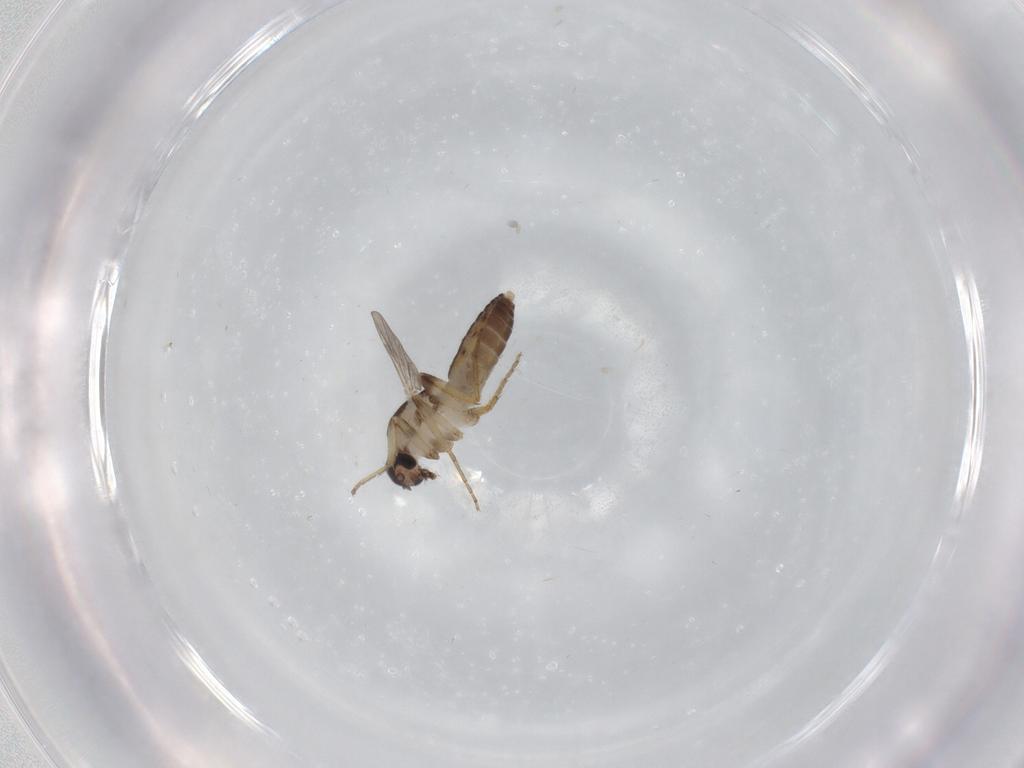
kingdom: Animalia
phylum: Arthropoda
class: Insecta
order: Diptera
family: Ceratopogonidae
